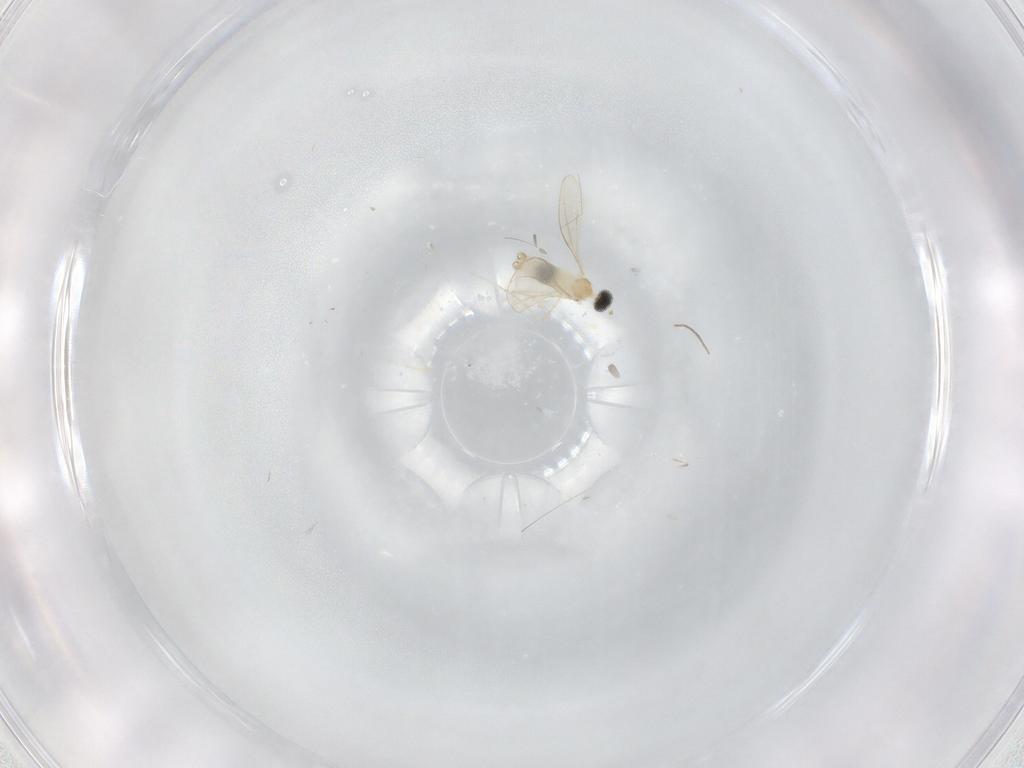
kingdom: Animalia
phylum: Arthropoda
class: Insecta
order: Diptera
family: Cecidomyiidae
